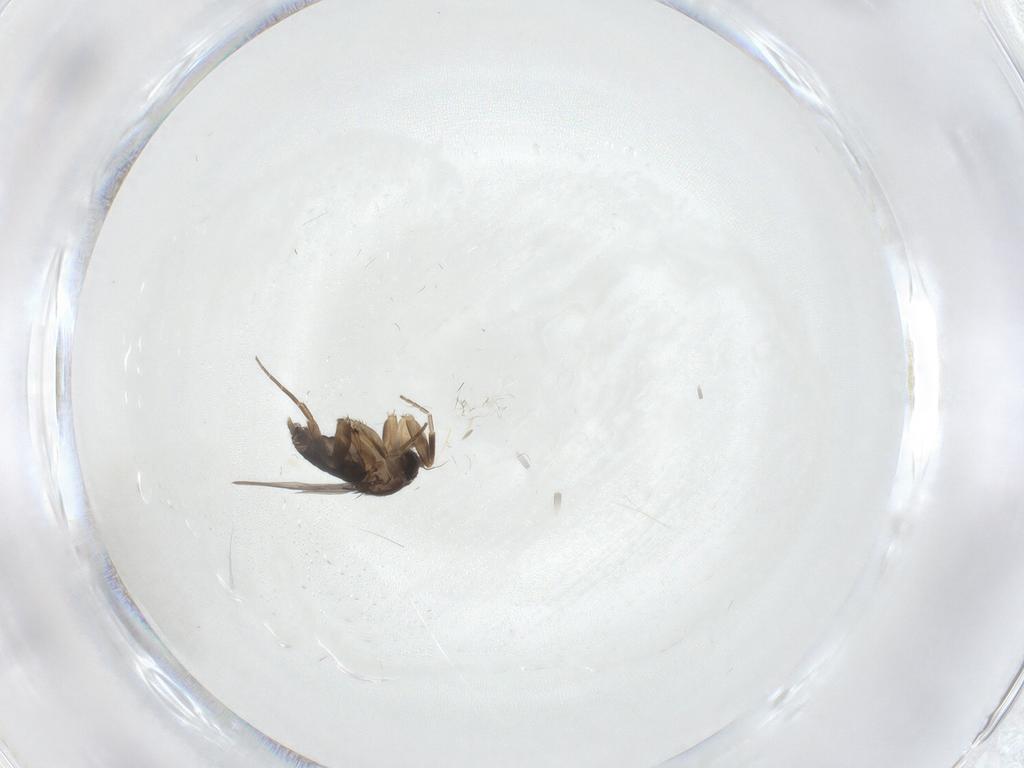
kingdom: Animalia
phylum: Arthropoda
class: Insecta
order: Diptera
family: Phoridae
